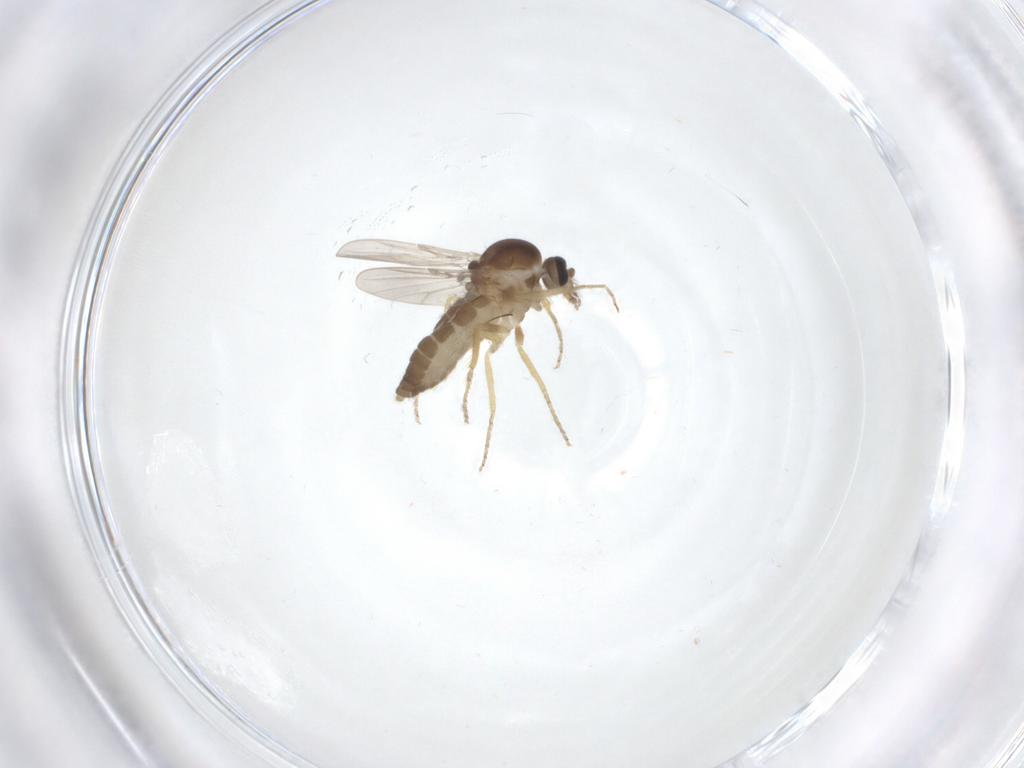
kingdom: Animalia
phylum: Arthropoda
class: Insecta
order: Diptera
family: Ceratopogonidae
